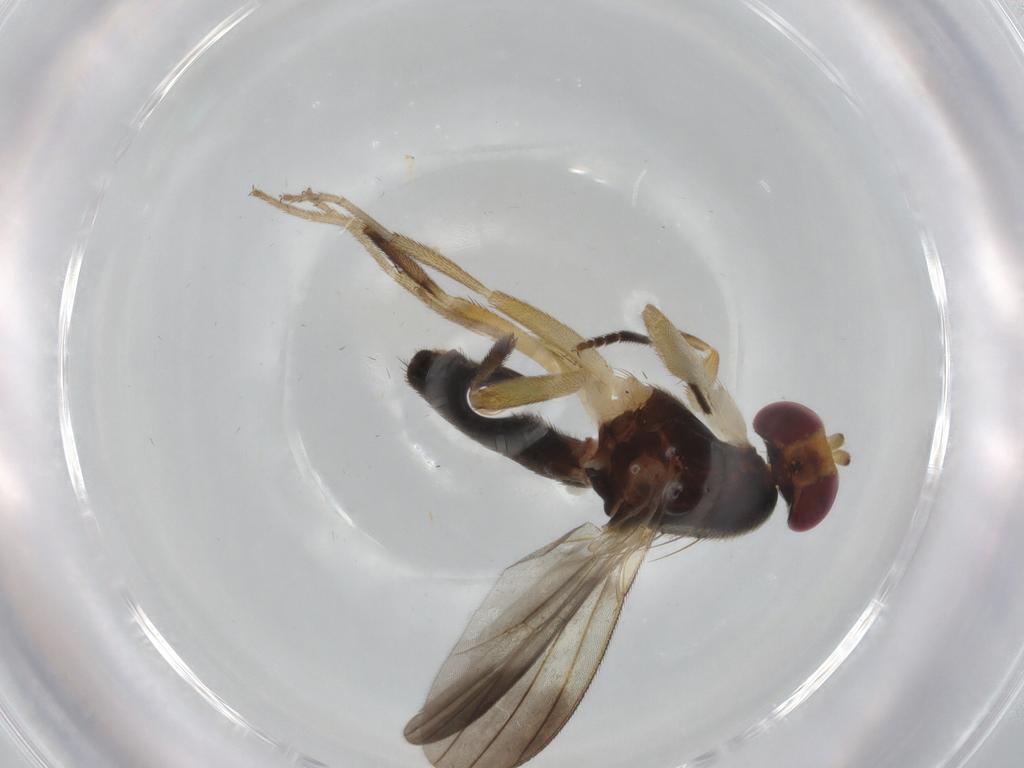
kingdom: Animalia
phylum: Arthropoda
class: Insecta
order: Diptera
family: Clusiidae
